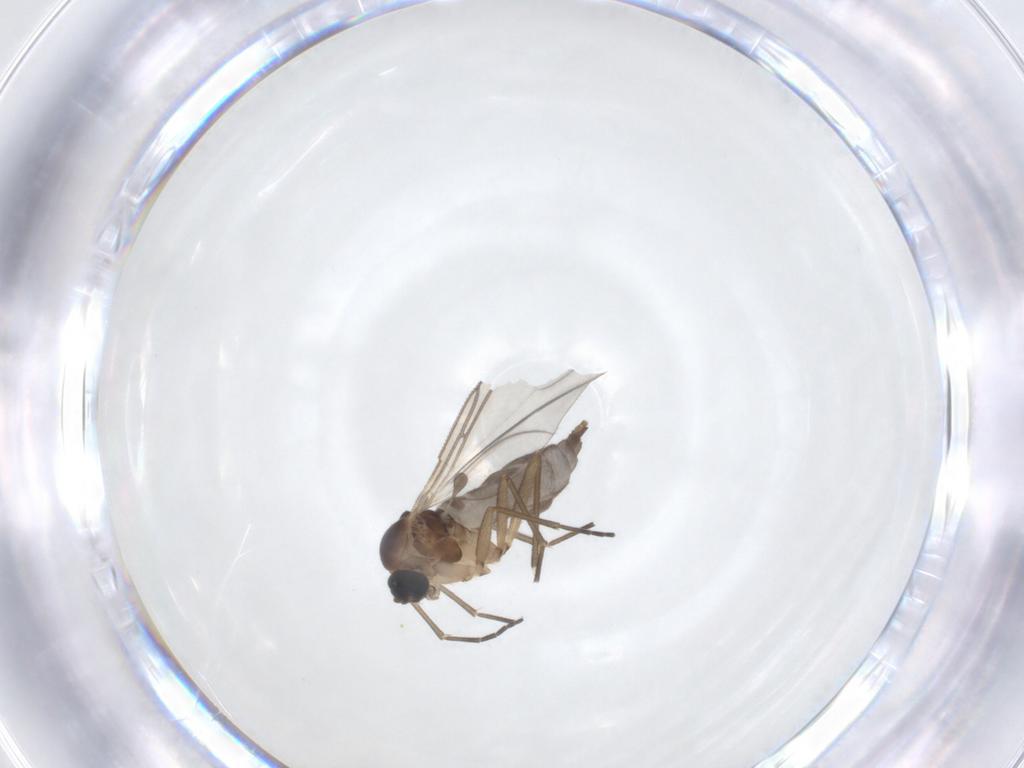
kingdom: Animalia
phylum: Arthropoda
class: Insecta
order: Diptera
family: Sciaridae
